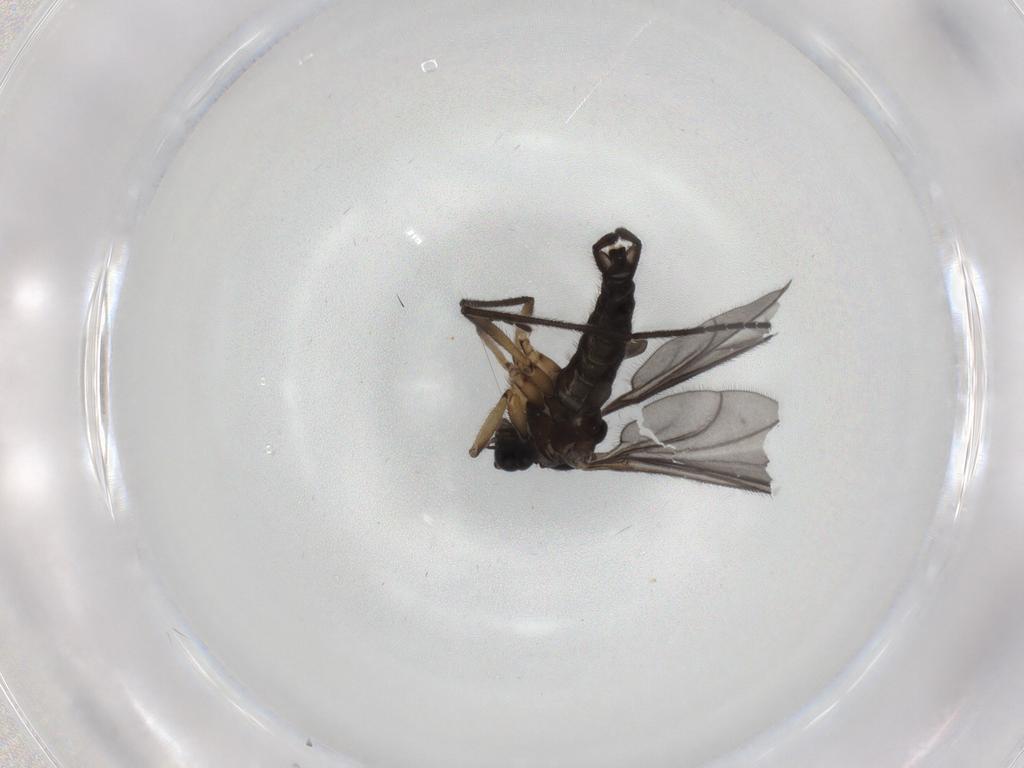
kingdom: Animalia
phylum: Arthropoda
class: Insecta
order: Diptera
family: Sciaridae
